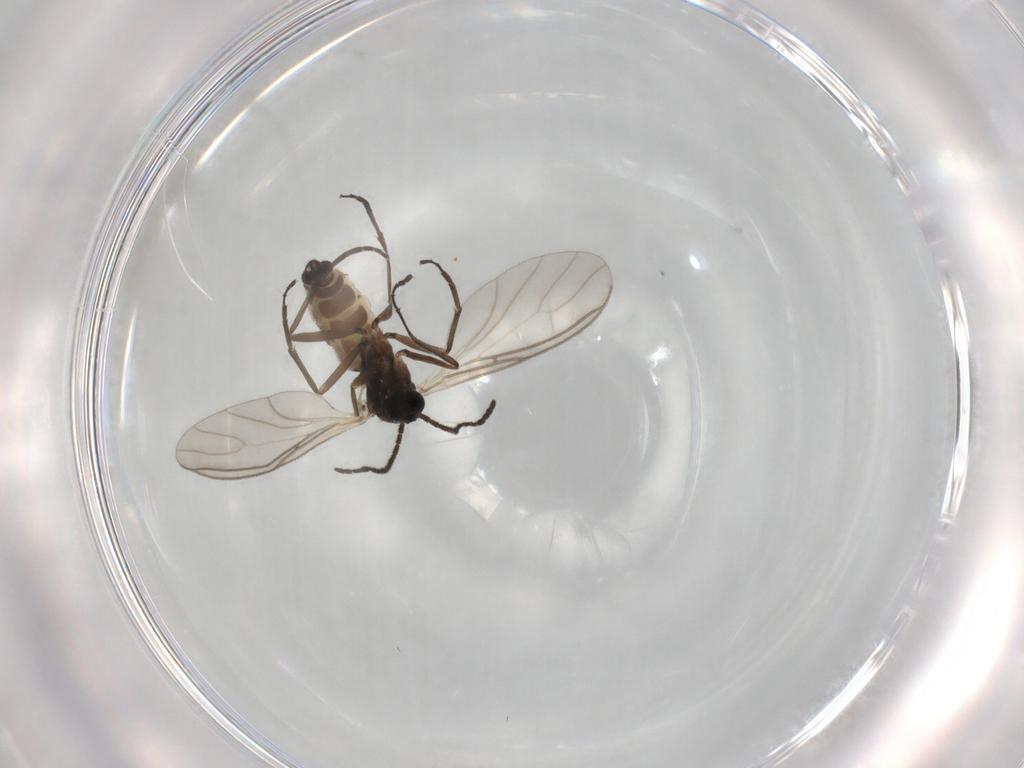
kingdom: Animalia
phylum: Arthropoda
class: Insecta
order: Diptera
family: Sciaridae
